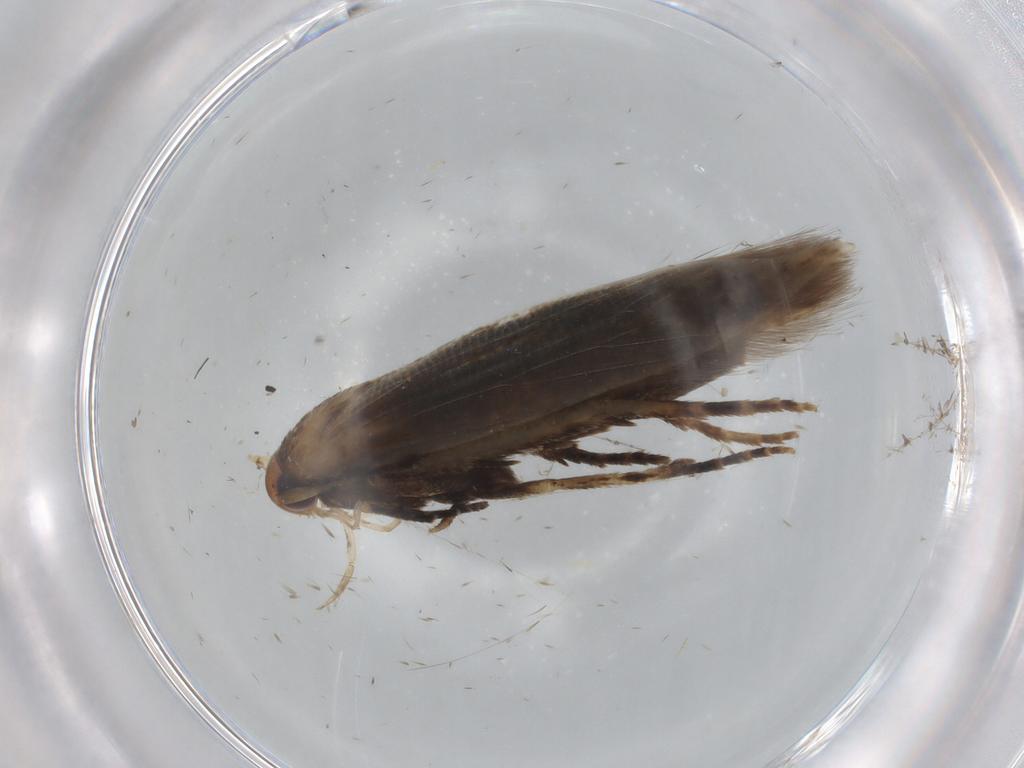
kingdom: Animalia
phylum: Arthropoda
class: Insecta
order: Lepidoptera
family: Cosmopterigidae
